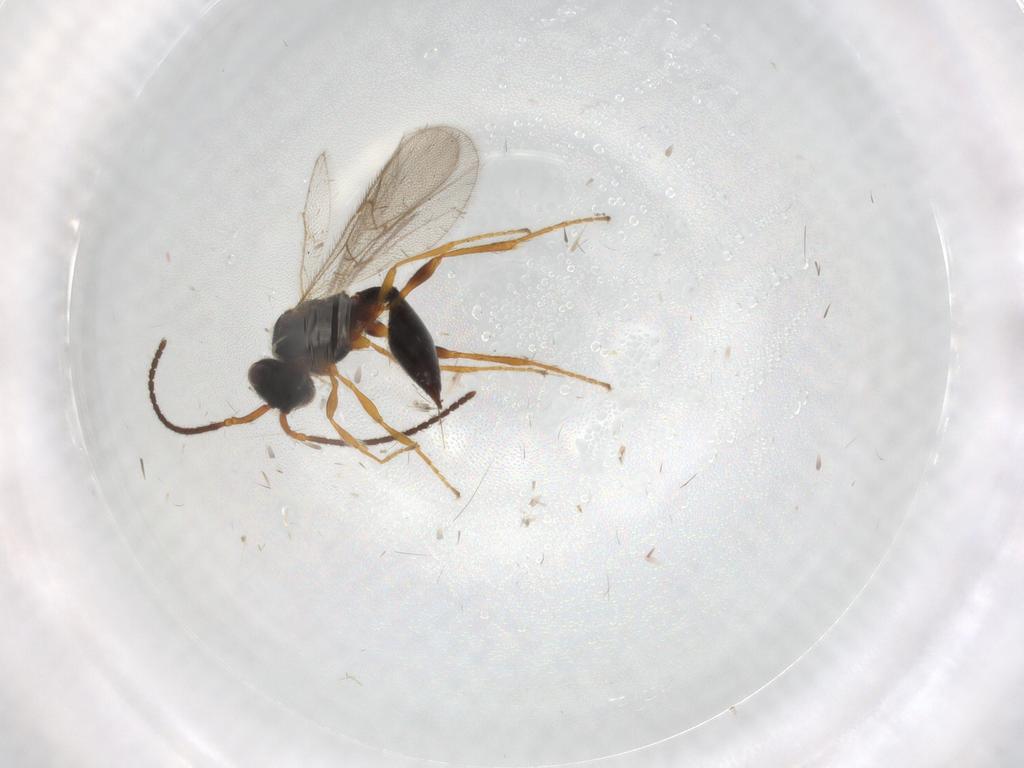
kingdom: Animalia
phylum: Arthropoda
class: Insecta
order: Hymenoptera
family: Diapriidae
